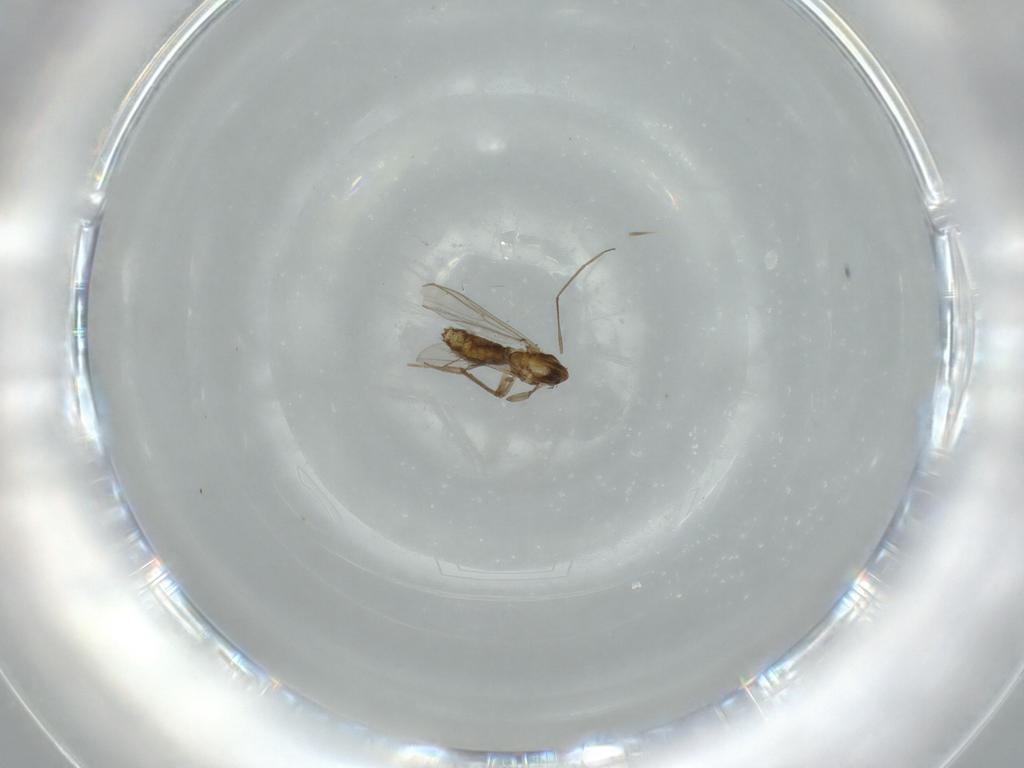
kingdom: Animalia
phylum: Arthropoda
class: Insecta
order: Diptera
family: Chironomidae
